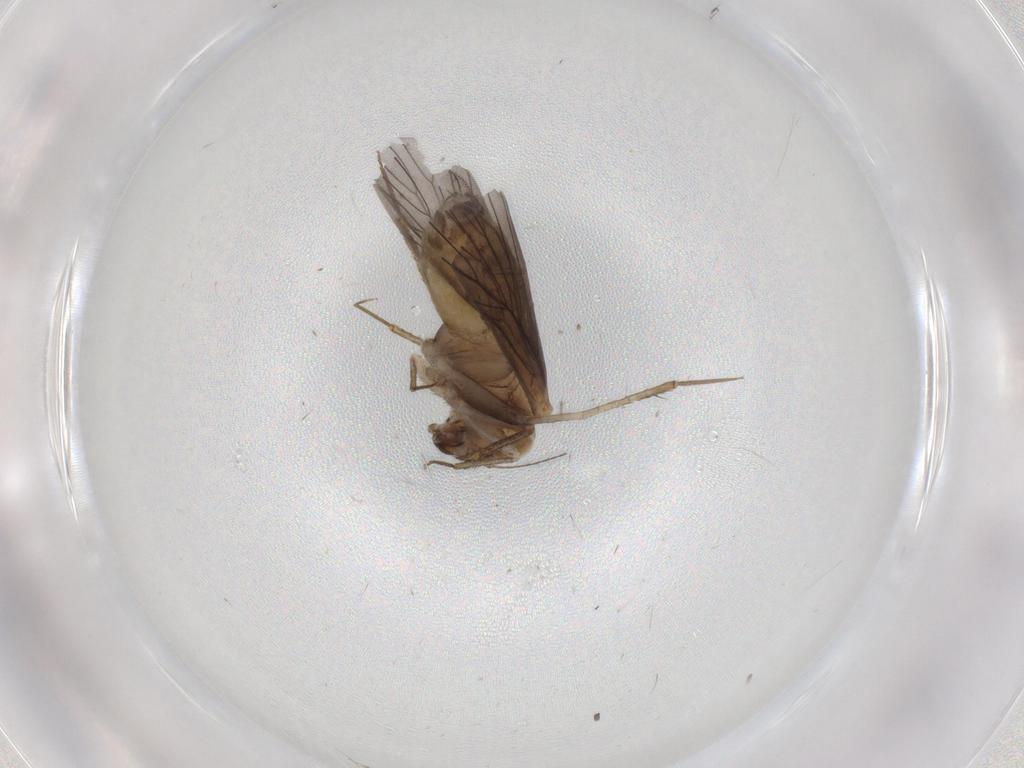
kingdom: Animalia
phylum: Arthropoda
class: Insecta
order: Psocodea
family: Lepidopsocidae
